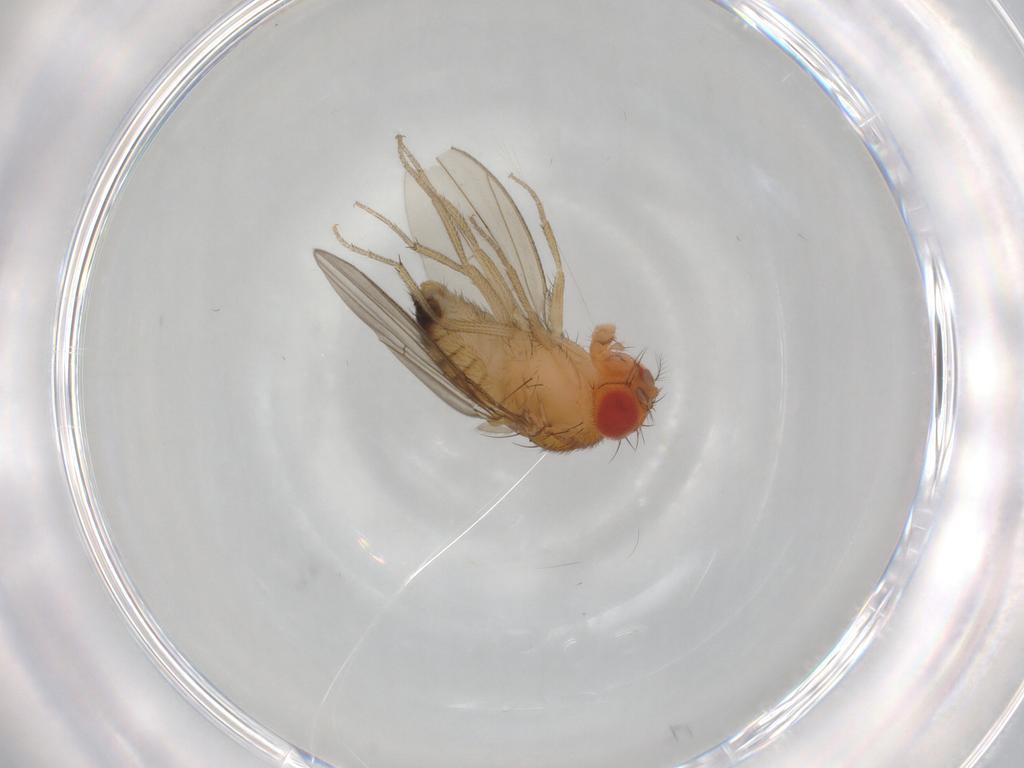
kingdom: Animalia
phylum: Arthropoda
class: Insecta
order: Diptera
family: Drosophilidae
